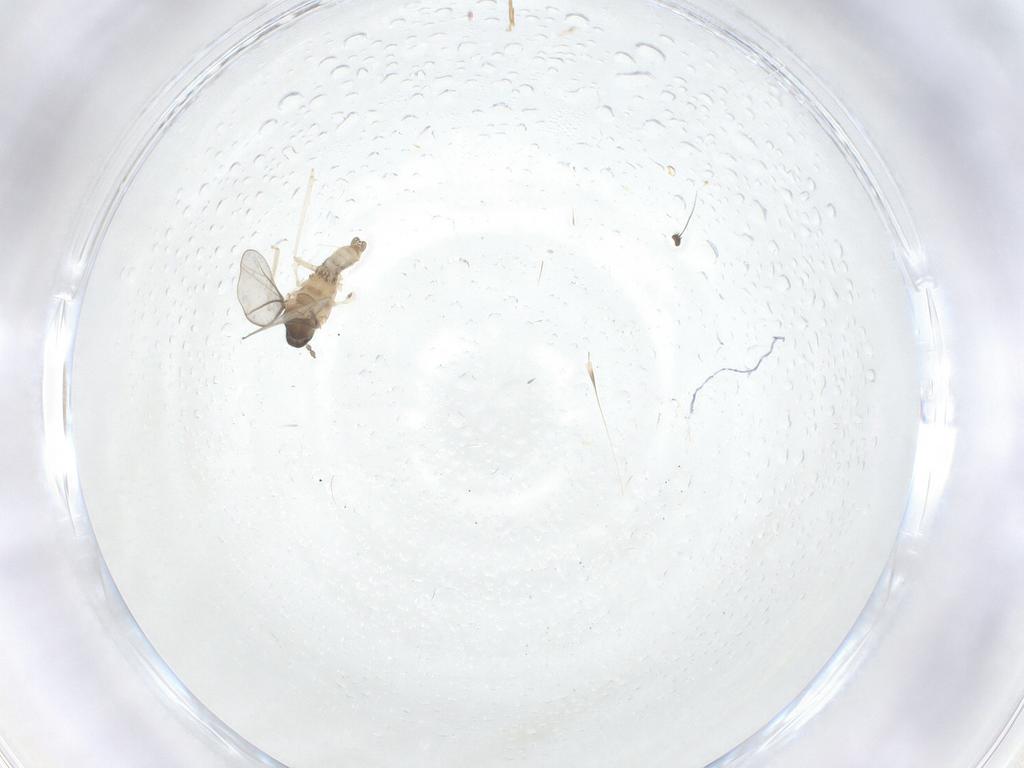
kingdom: Animalia
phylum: Arthropoda
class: Insecta
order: Diptera
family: Dolichopodidae
